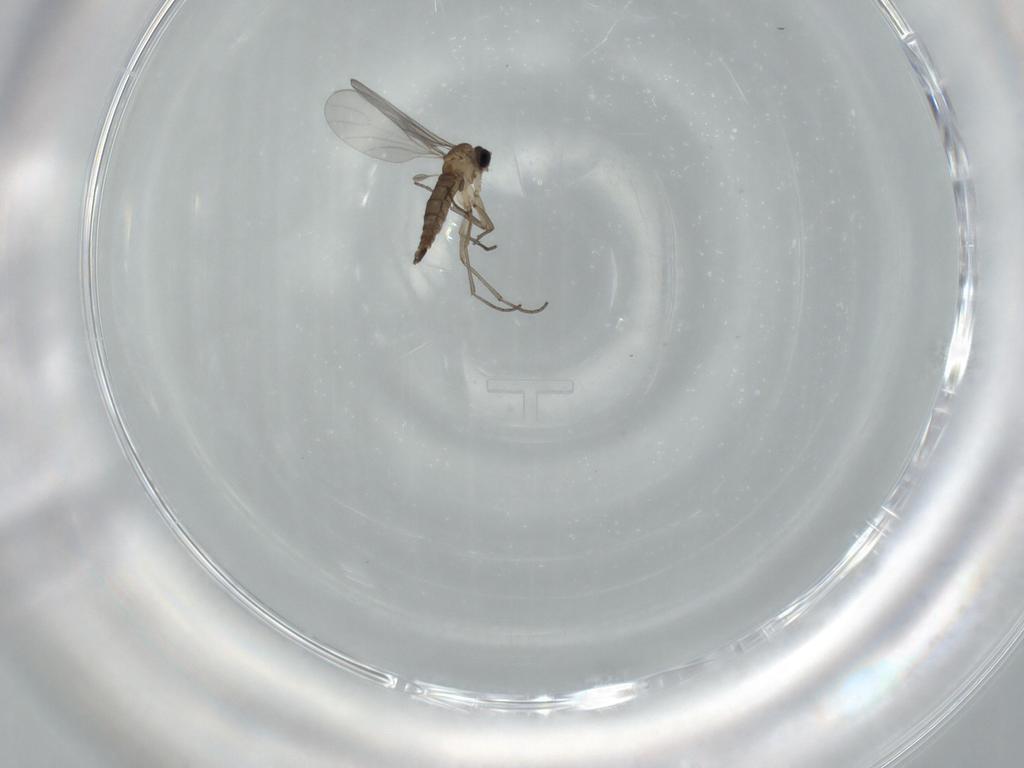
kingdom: Animalia
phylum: Arthropoda
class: Insecta
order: Diptera
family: Sciaridae
